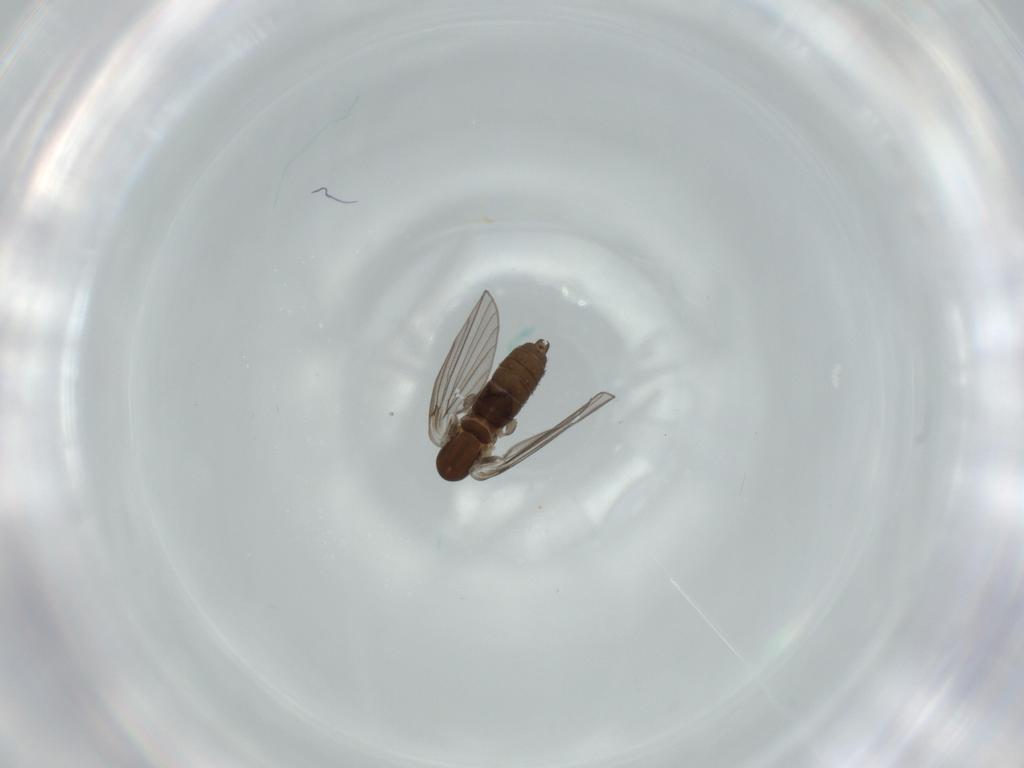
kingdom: Animalia
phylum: Arthropoda
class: Insecta
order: Diptera
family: Psychodidae
